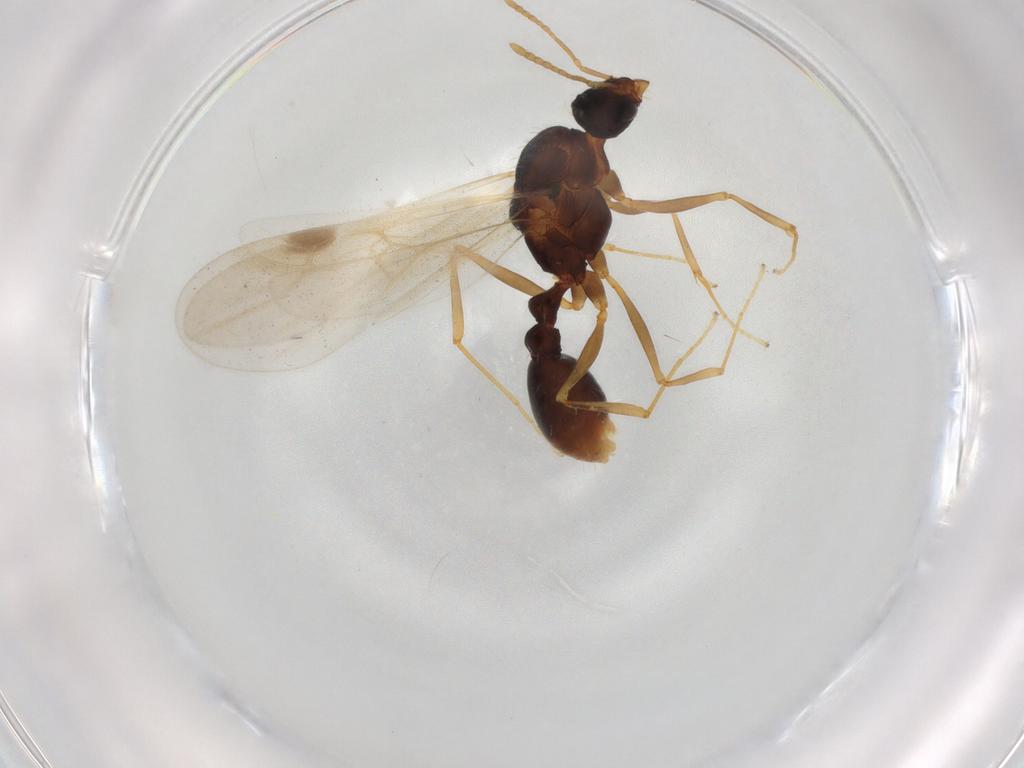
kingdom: Animalia
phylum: Arthropoda
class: Insecta
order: Hymenoptera
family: Formicidae
